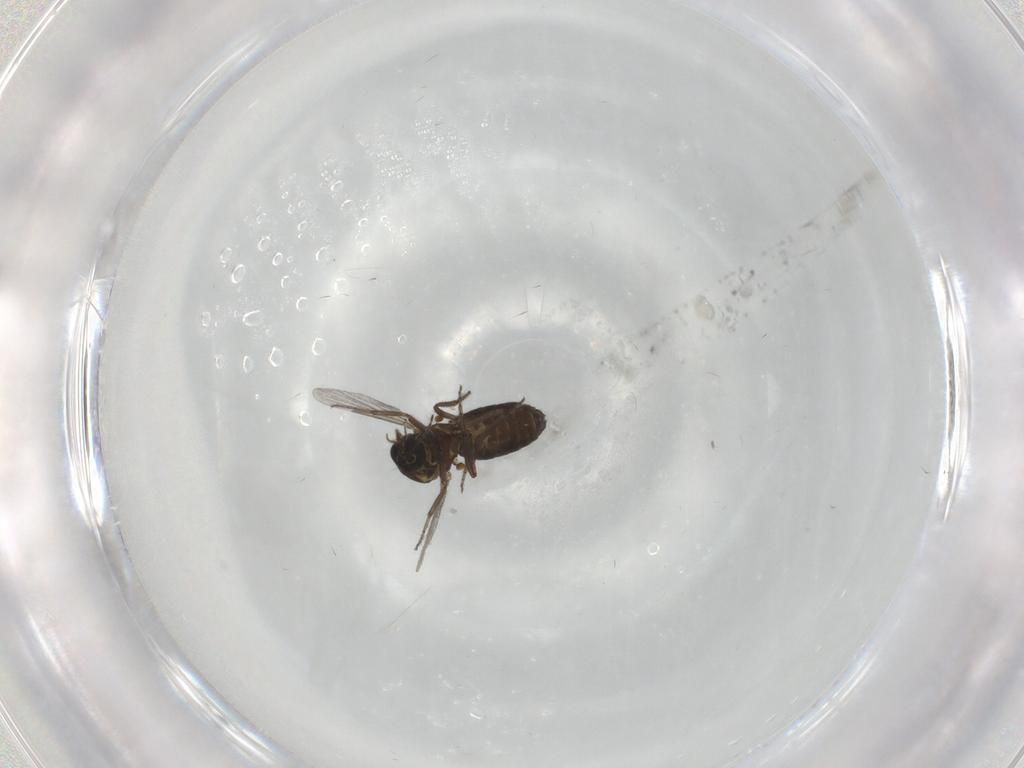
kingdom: Animalia
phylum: Arthropoda
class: Insecta
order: Diptera
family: Ceratopogonidae
